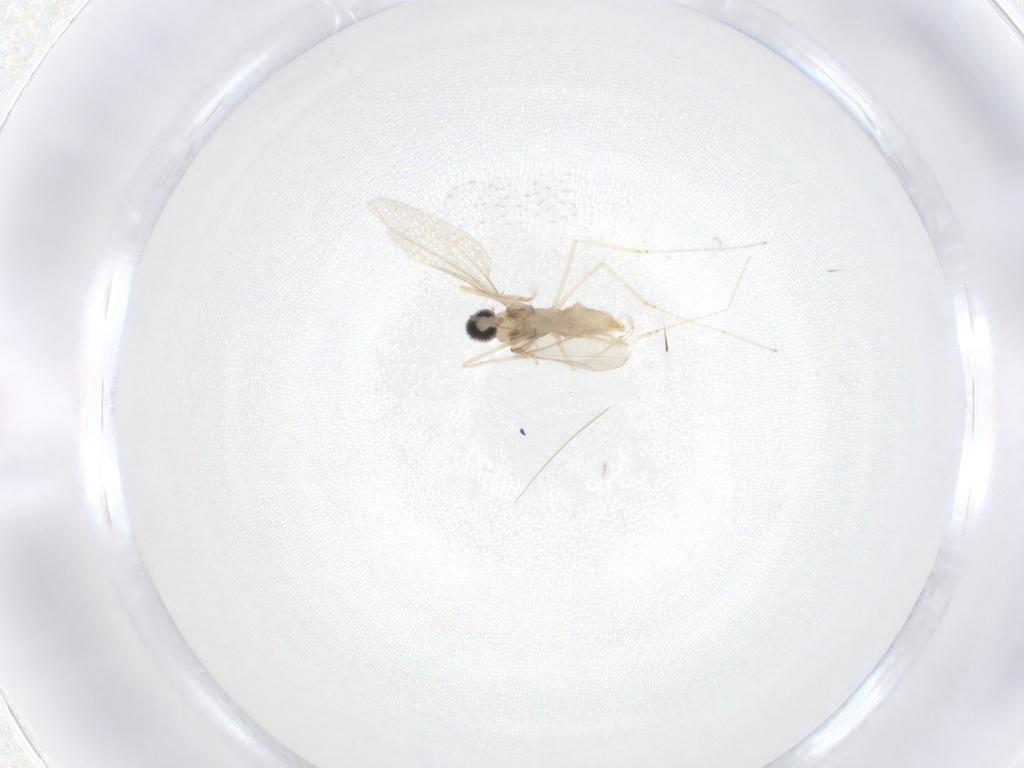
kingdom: Animalia
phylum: Arthropoda
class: Insecta
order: Diptera
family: Cecidomyiidae
